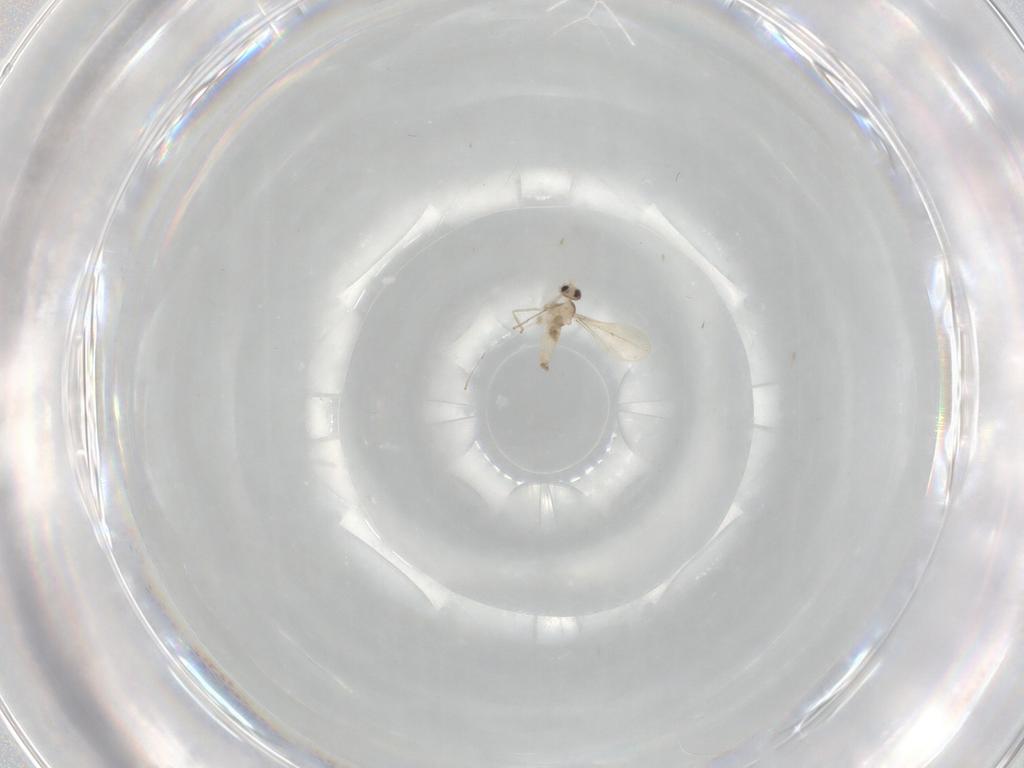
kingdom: Animalia
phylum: Arthropoda
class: Insecta
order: Diptera
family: Cecidomyiidae
